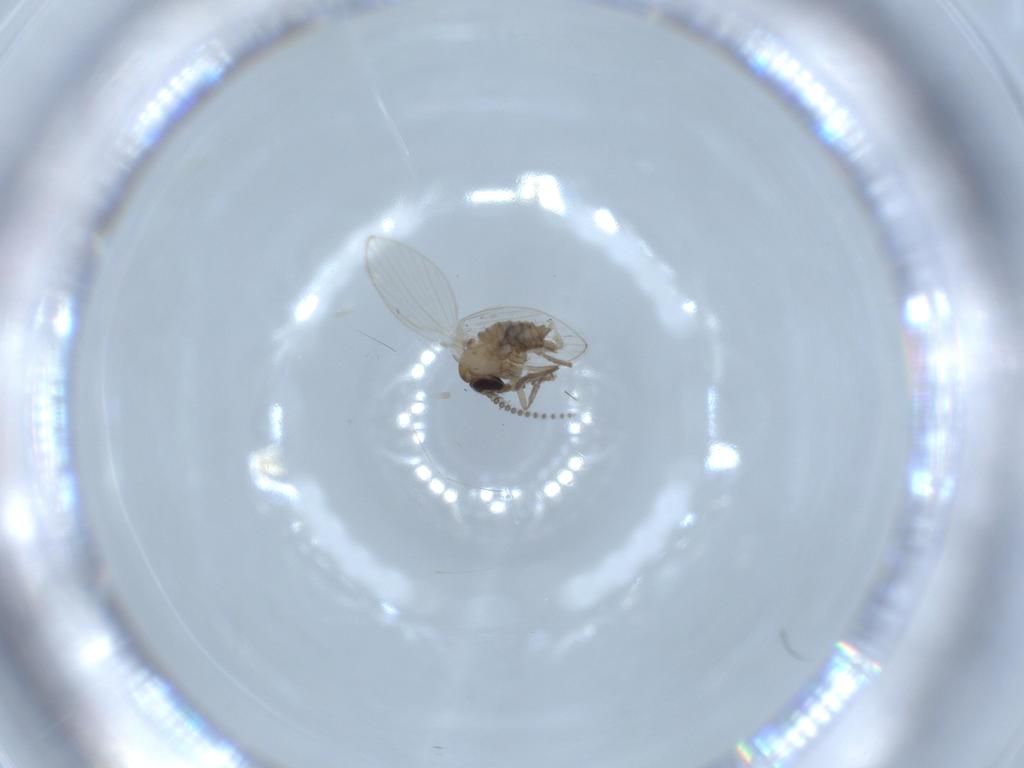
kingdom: Animalia
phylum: Arthropoda
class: Insecta
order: Diptera
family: Psychodidae
